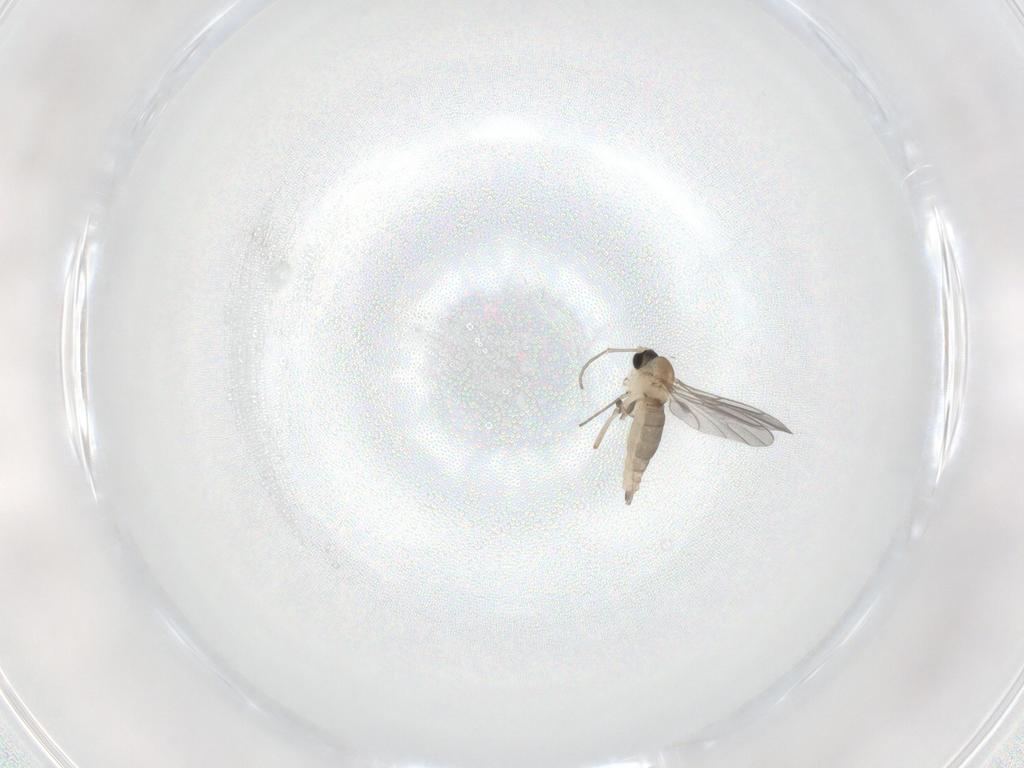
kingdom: Animalia
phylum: Arthropoda
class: Insecta
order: Diptera
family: Sciaridae
